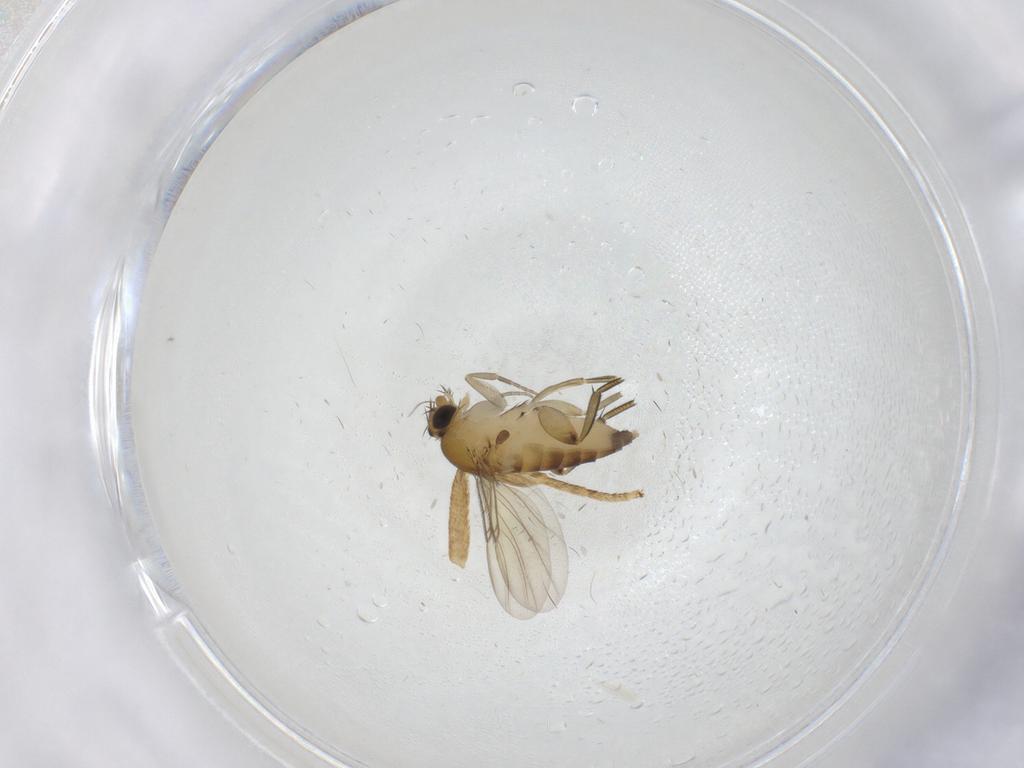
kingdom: Animalia
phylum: Arthropoda
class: Insecta
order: Diptera
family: Phoridae
